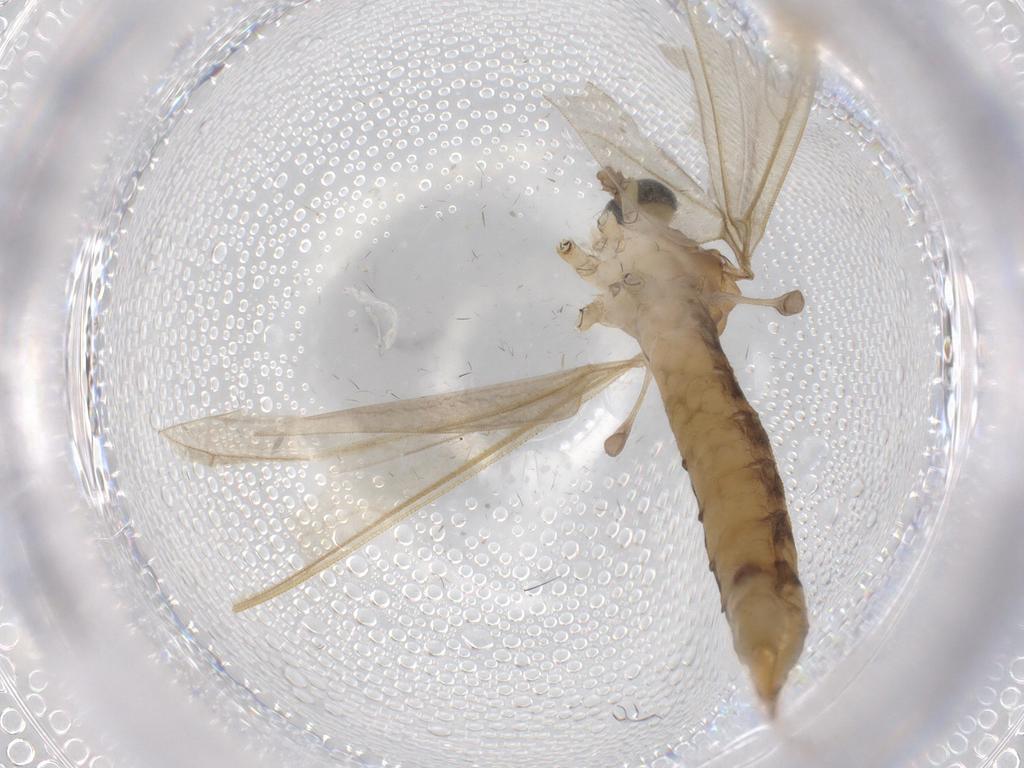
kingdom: Animalia
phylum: Arthropoda
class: Insecta
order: Diptera
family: Limoniidae
